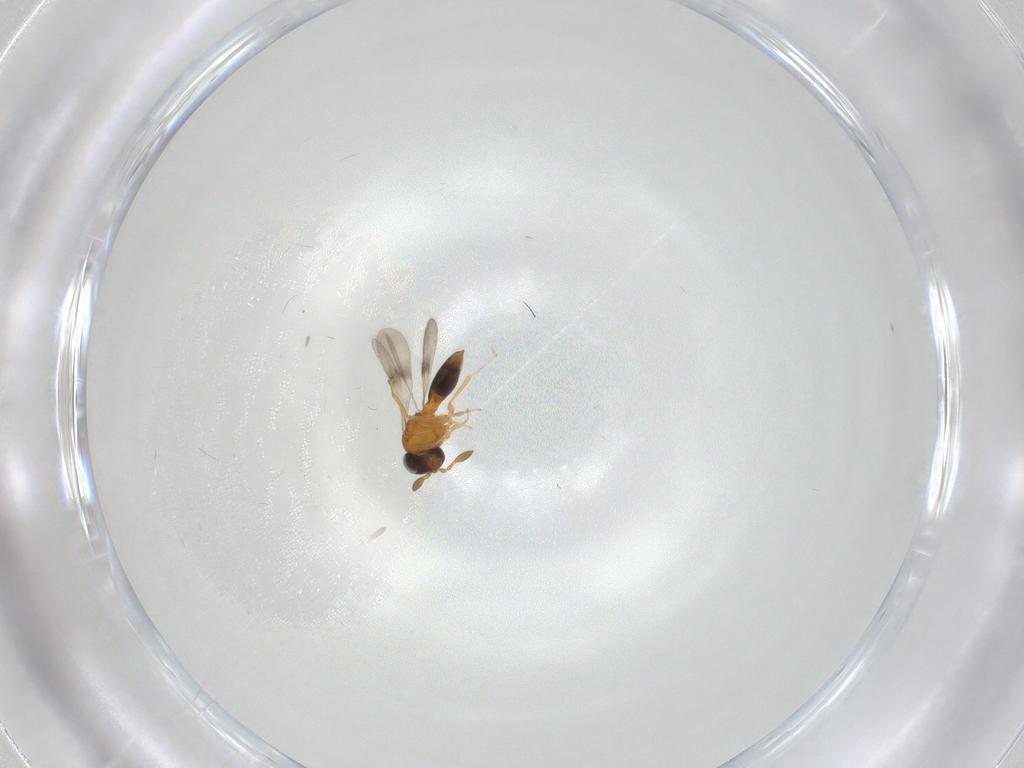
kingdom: Animalia
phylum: Arthropoda
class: Insecta
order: Hymenoptera
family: Scelionidae
